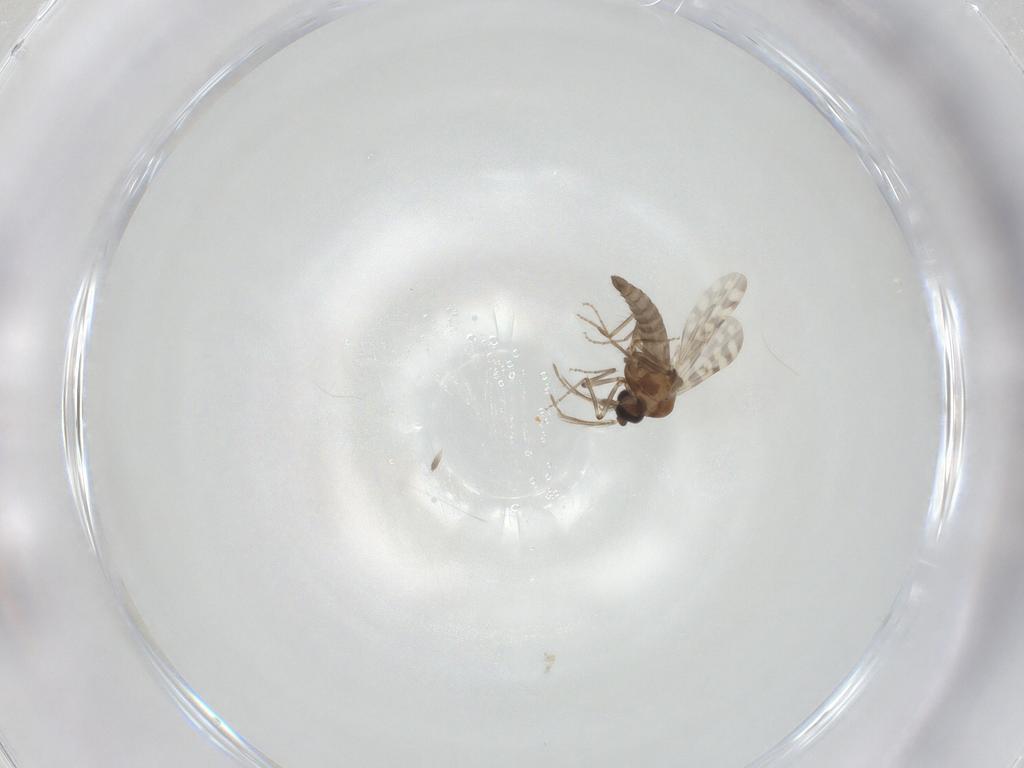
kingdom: Animalia
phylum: Arthropoda
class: Insecta
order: Diptera
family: Ceratopogonidae
